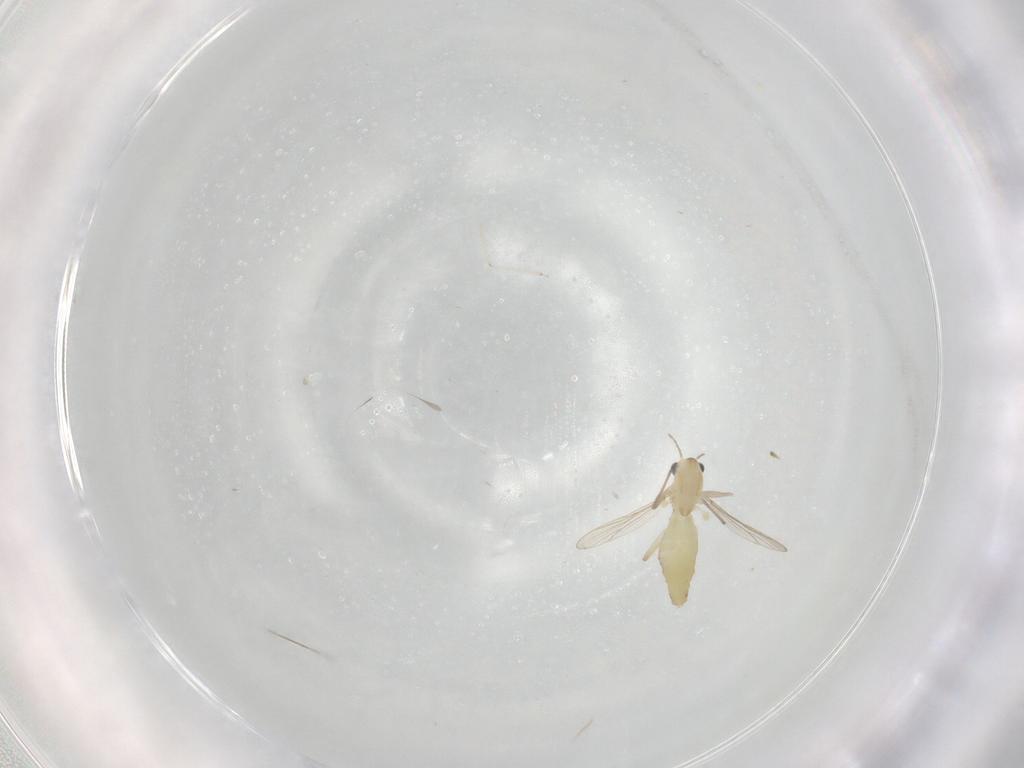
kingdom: Animalia
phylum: Arthropoda
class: Insecta
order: Diptera
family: Chironomidae
